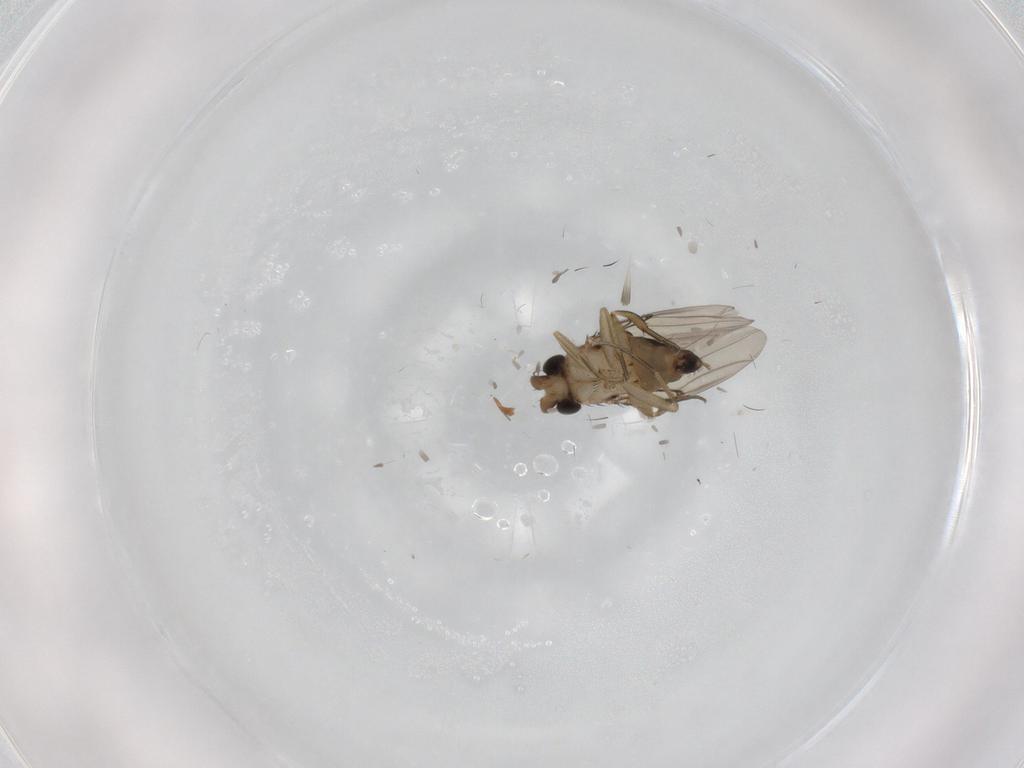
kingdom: Animalia
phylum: Arthropoda
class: Insecta
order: Diptera
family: Phoridae
